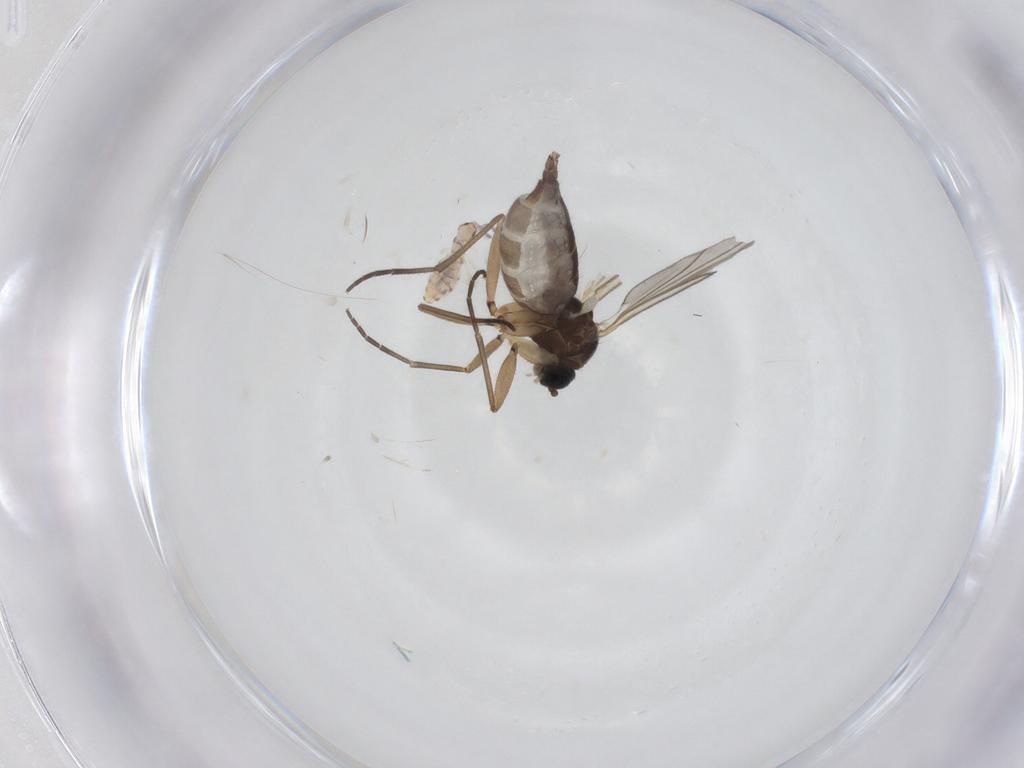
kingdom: Animalia
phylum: Arthropoda
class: Insecta
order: Diptera
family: Sciaridae
